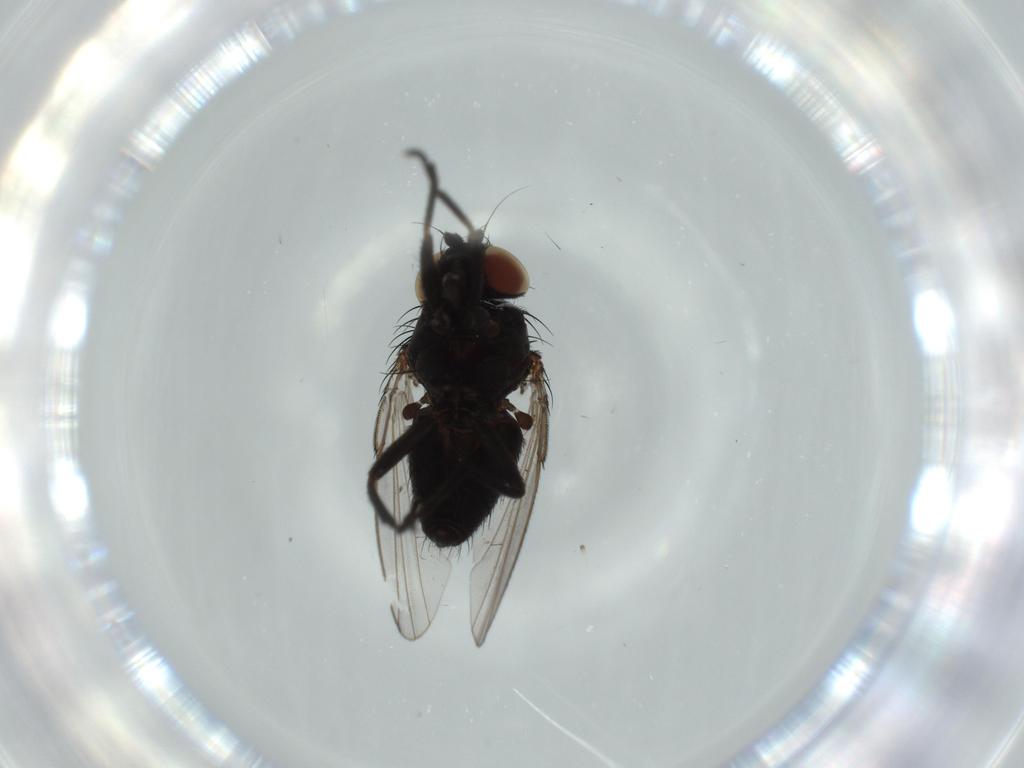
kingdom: Animalia
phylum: Arthropoda
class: Insecta
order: Diptera
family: Milichiidae
